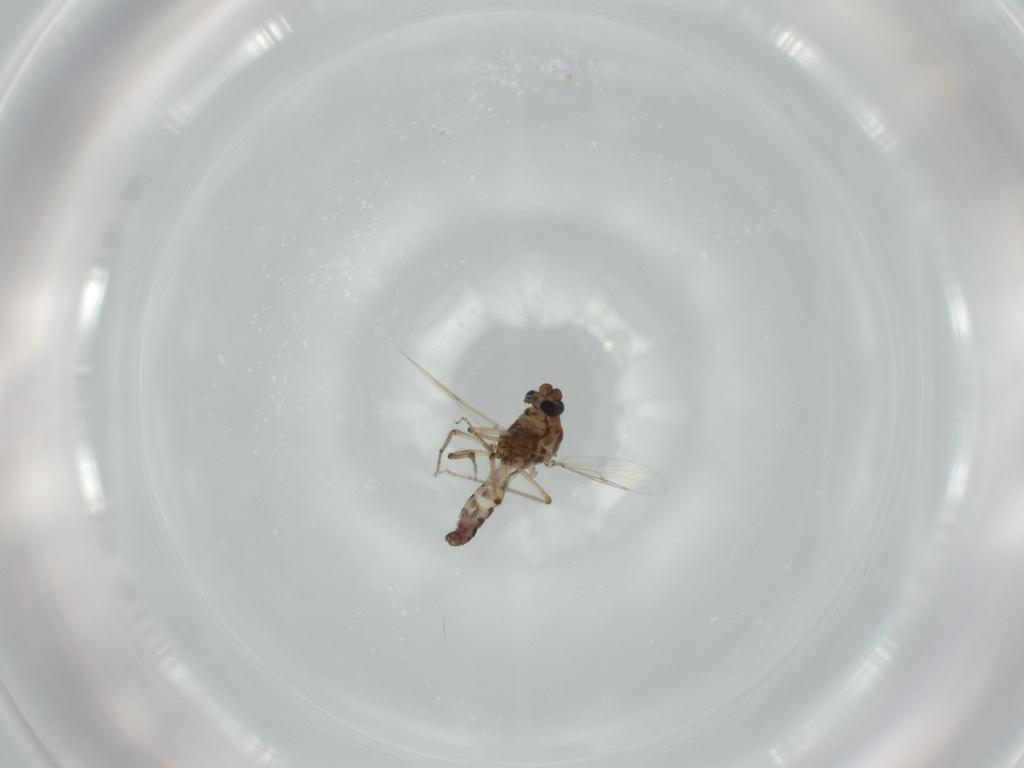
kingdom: Animalia
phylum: Arthropoda
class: Insecta
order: Diptera
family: Ceratopogonidae
